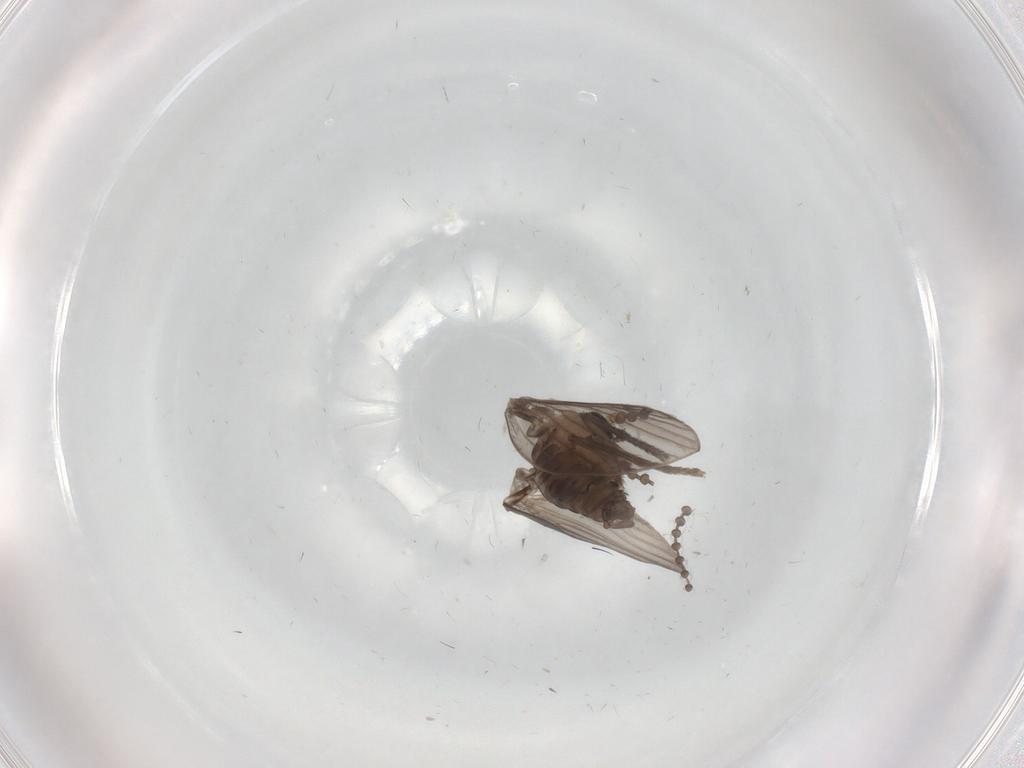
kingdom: Animalia
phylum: Arthropoda
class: Insecta
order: Diptera
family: Psychodidae
